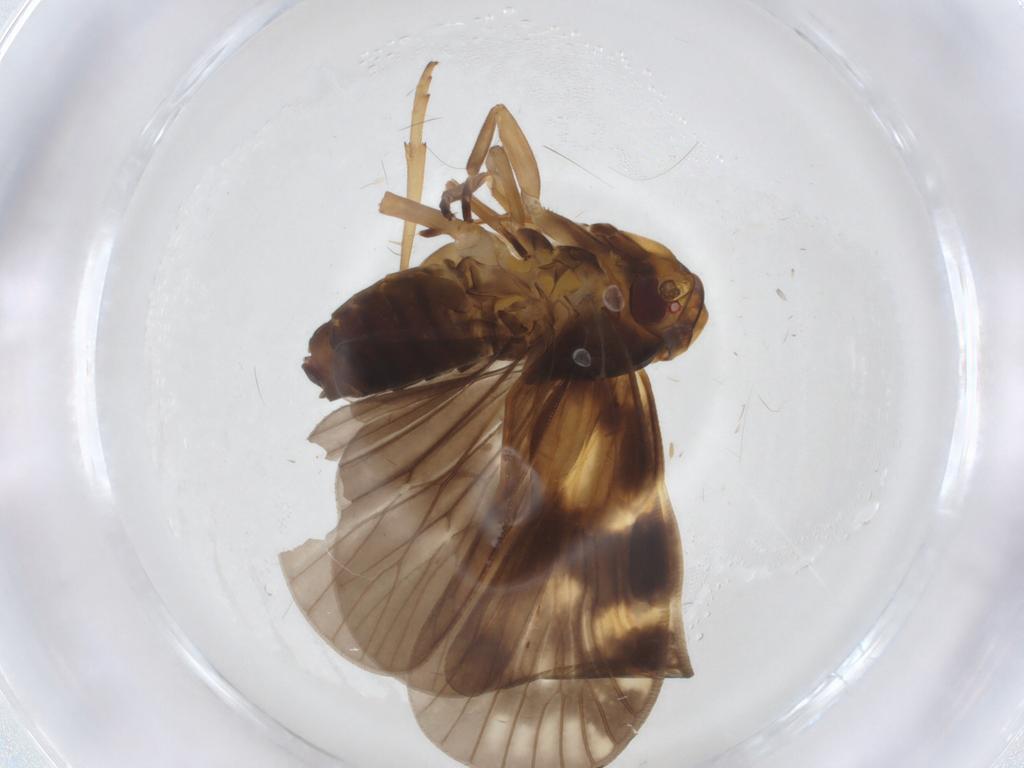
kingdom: Animalia
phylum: Arthropoda
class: Insecta
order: Hemiptera
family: Cixiidae
